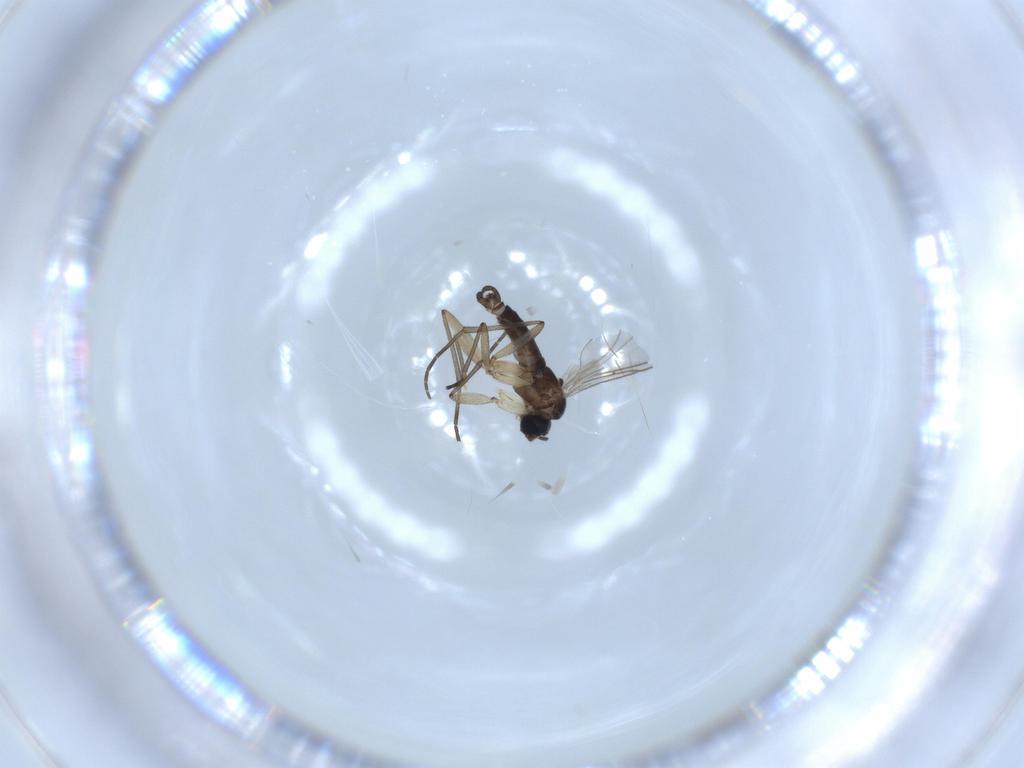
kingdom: Animalia
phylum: Arthropoda
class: Insecta
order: Diptera
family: Sciaridae
